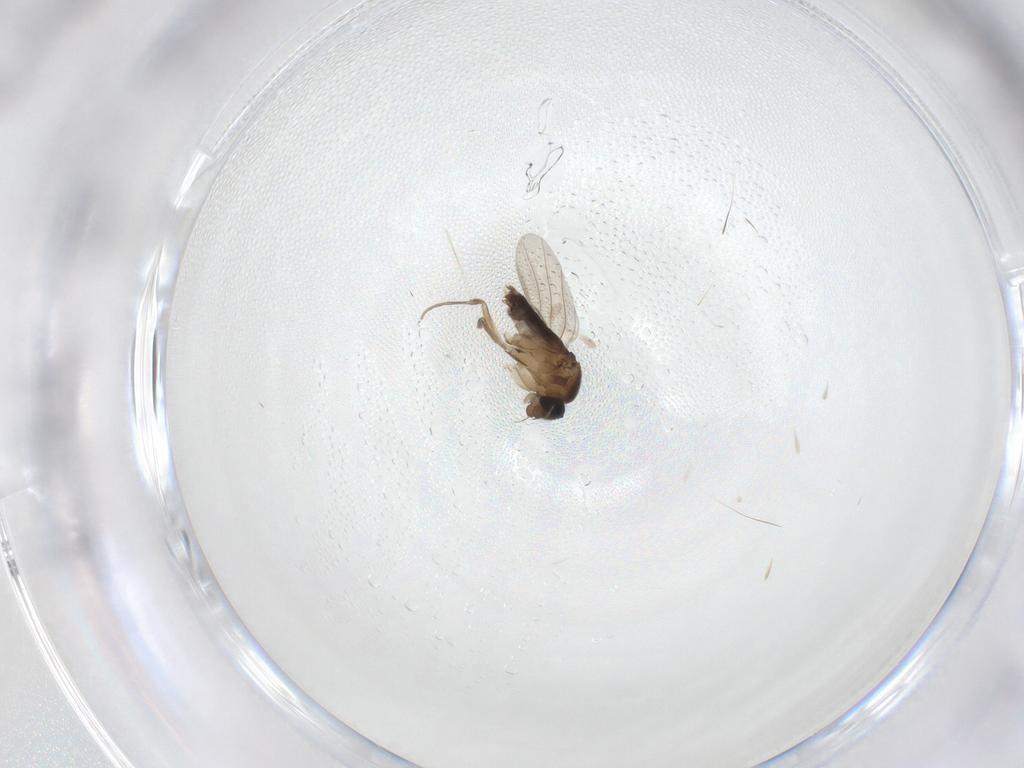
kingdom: Animalia
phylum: Arthropoda
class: Insecta
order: Diptera
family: Phoridae
